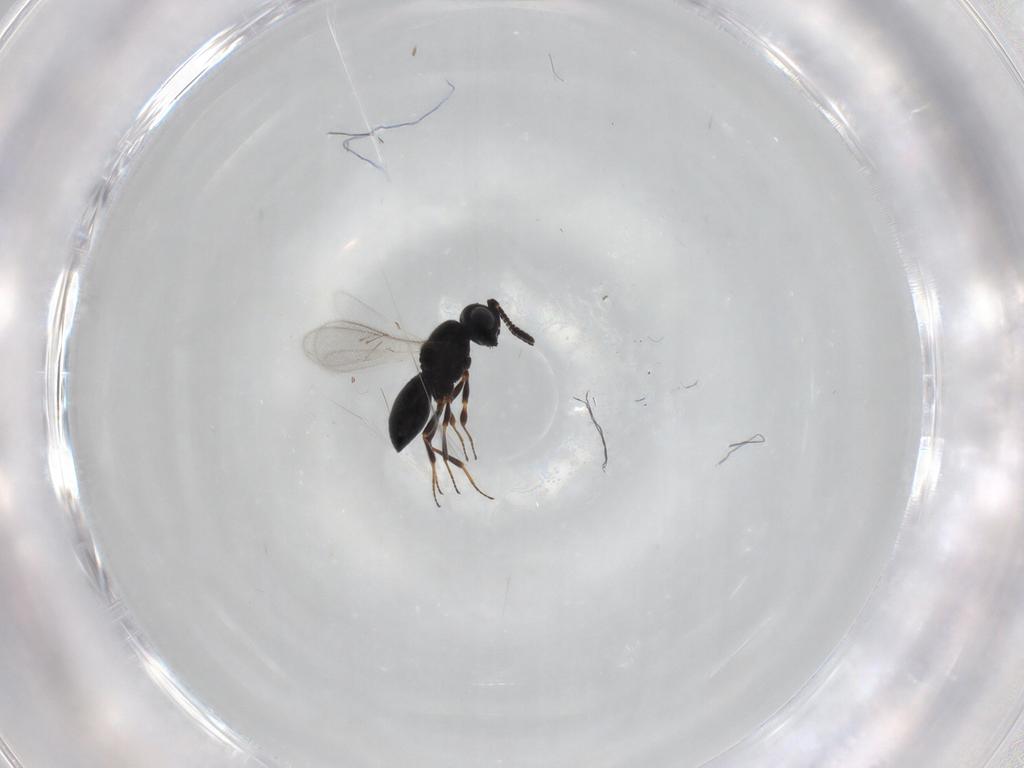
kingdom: Animalia
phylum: Arthropoda
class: Insecta
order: Hymenoptera
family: Scelionidae
